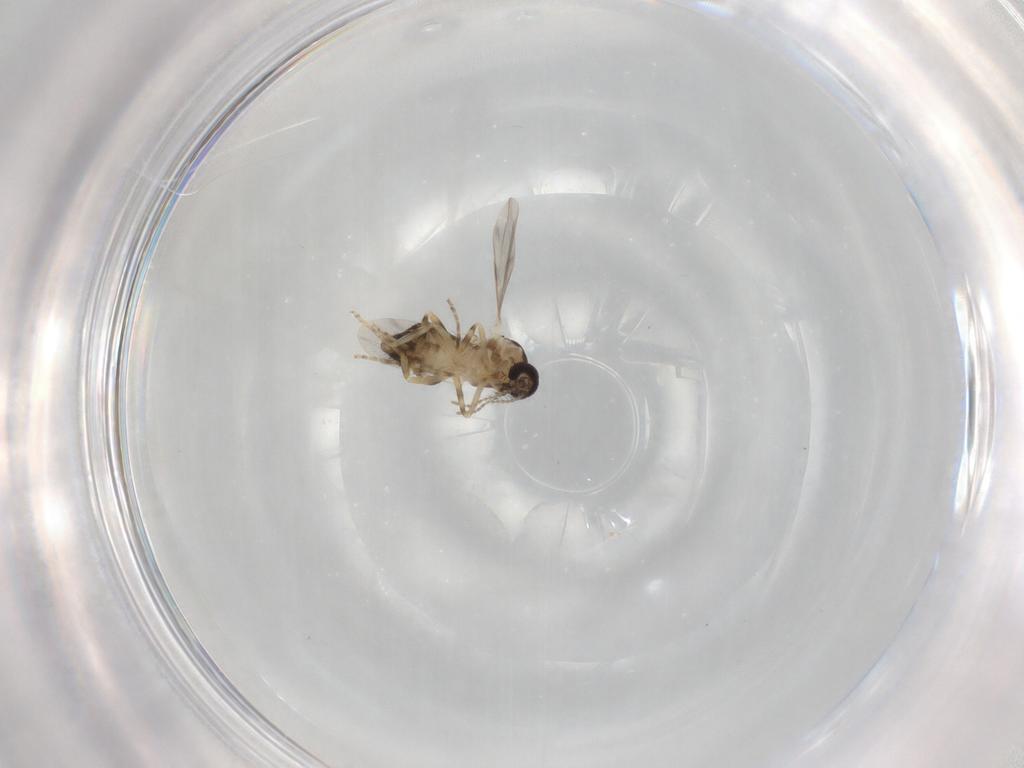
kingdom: Animalia
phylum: Arthropoda
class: Insecta
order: Diptera
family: Ceratopogonidae
